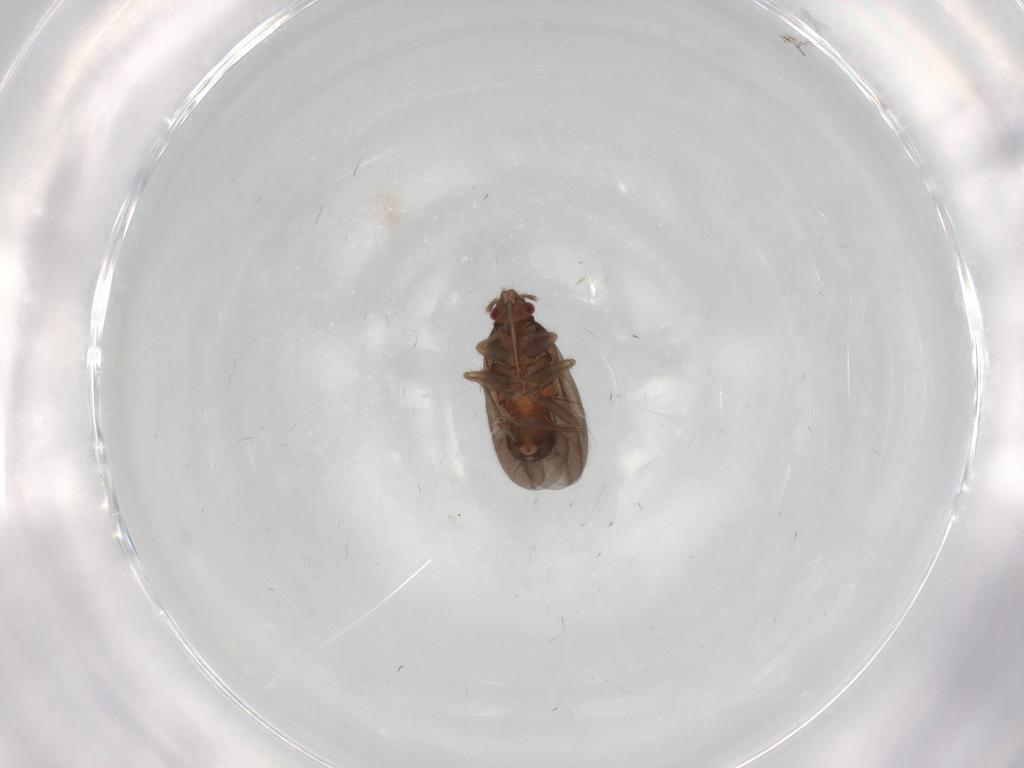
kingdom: Animalia
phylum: Arthropoda
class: Insecta
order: Hemiptera
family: Ceratocombidae
